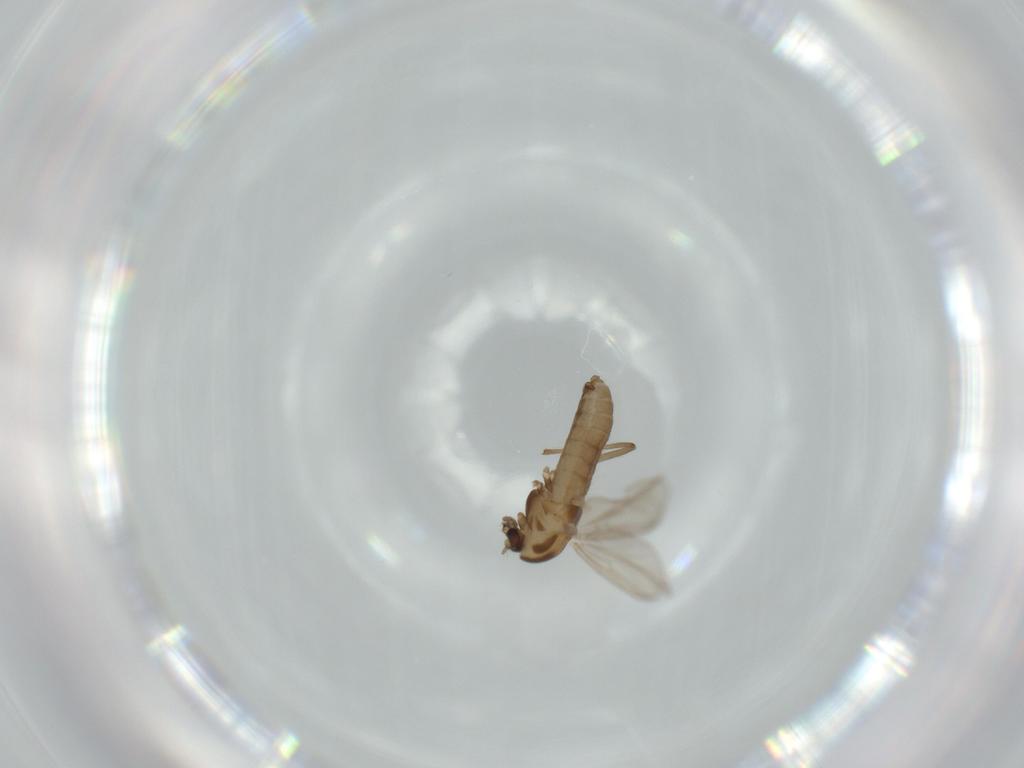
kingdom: Animalia
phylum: Arthropoda
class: Insecta
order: Diptera
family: Chironomidae
